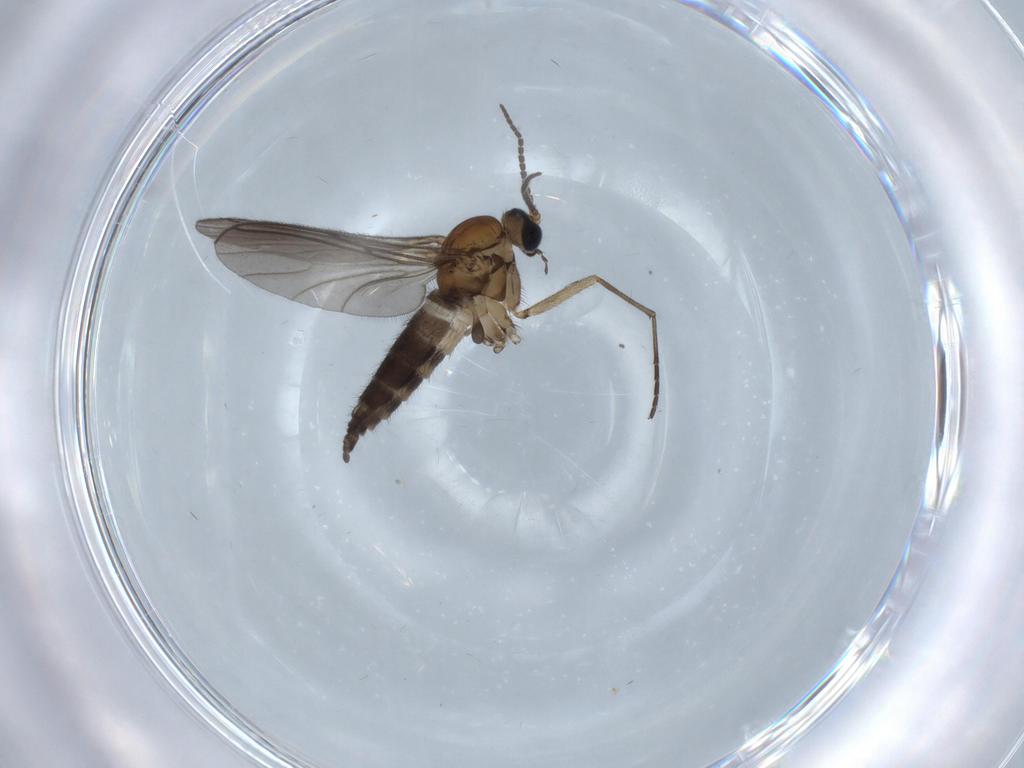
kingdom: Animalia
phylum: Arthropoda
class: Insecta
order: Diptera
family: Sciaridae
